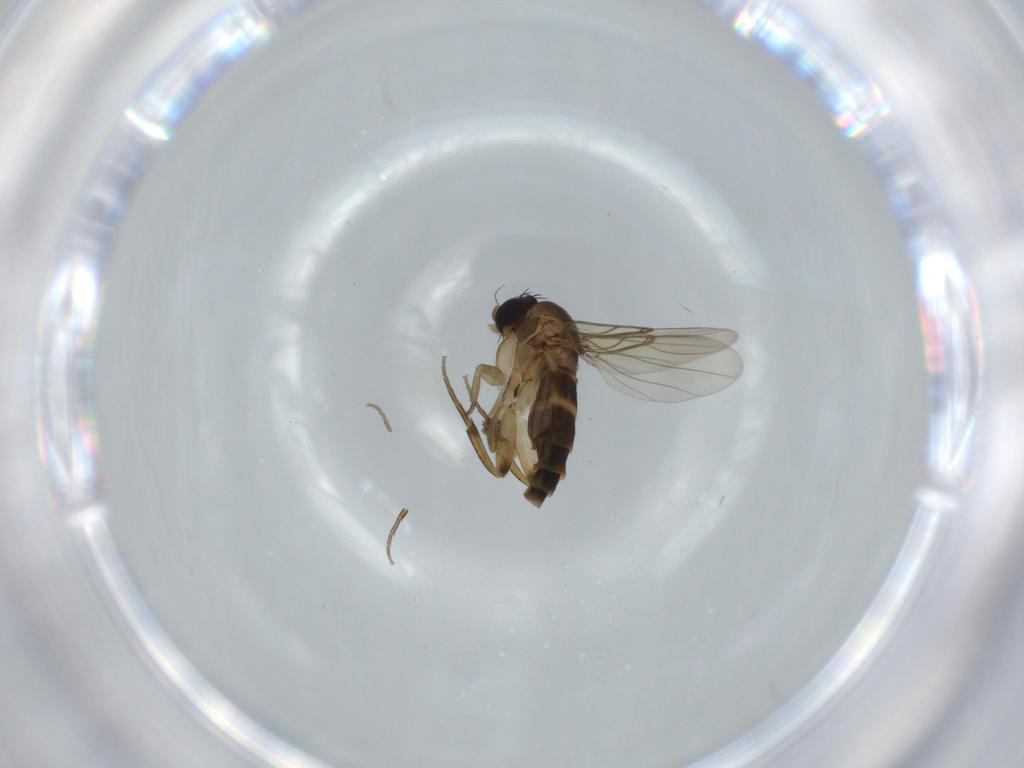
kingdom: Animalia
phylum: Arthropoda
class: Insecta
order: Diptera
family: Phoridae
